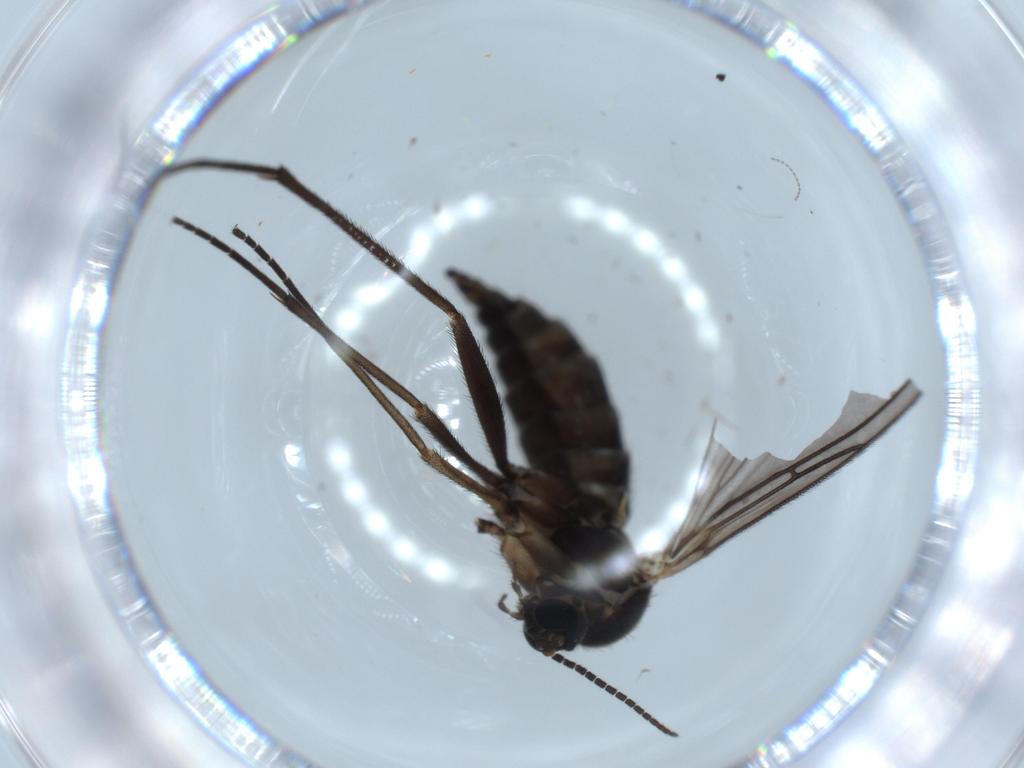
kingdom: Animalia
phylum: Arthropoda
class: Insecta
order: Diptera
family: Sciaridae
